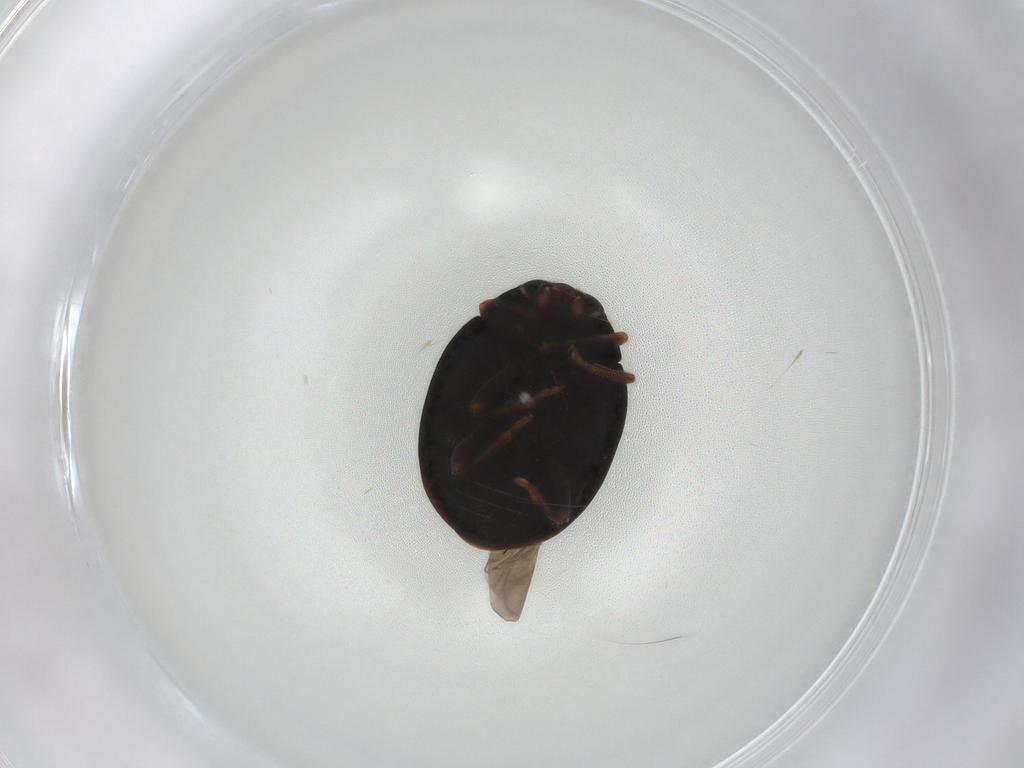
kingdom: Animalia
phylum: Arthropoda
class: Insecta
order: Coleoptera
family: Coccinellidae
